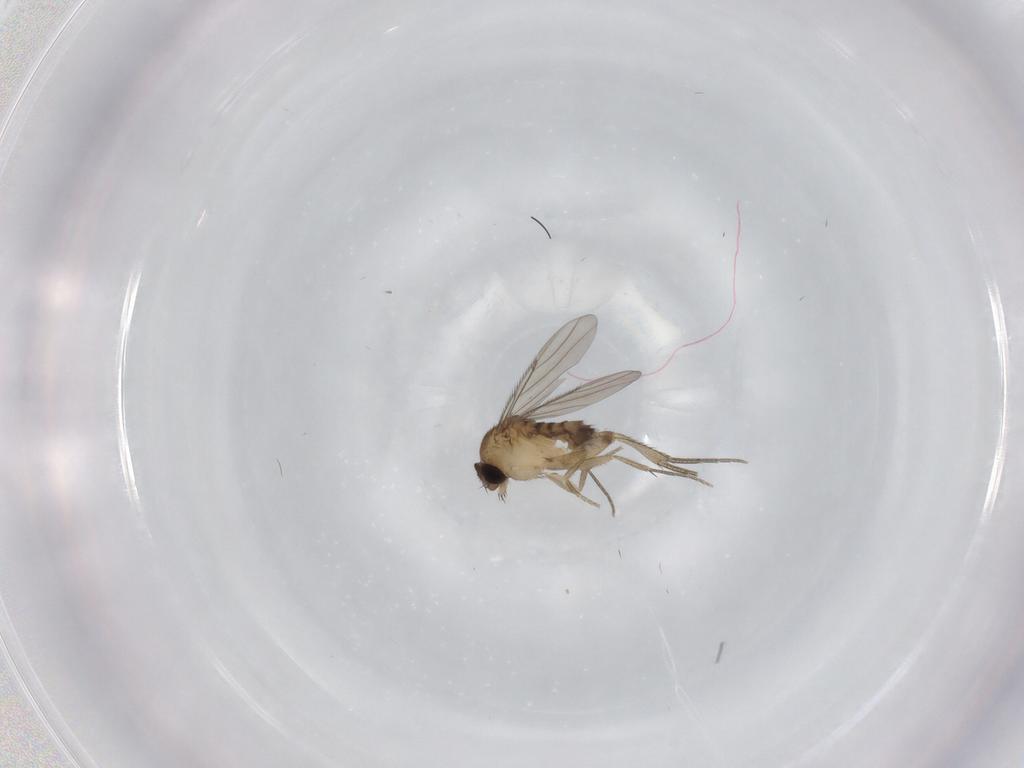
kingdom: Animalia
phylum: Arthropoda
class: Insecta
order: Diptera
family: Phoridae
